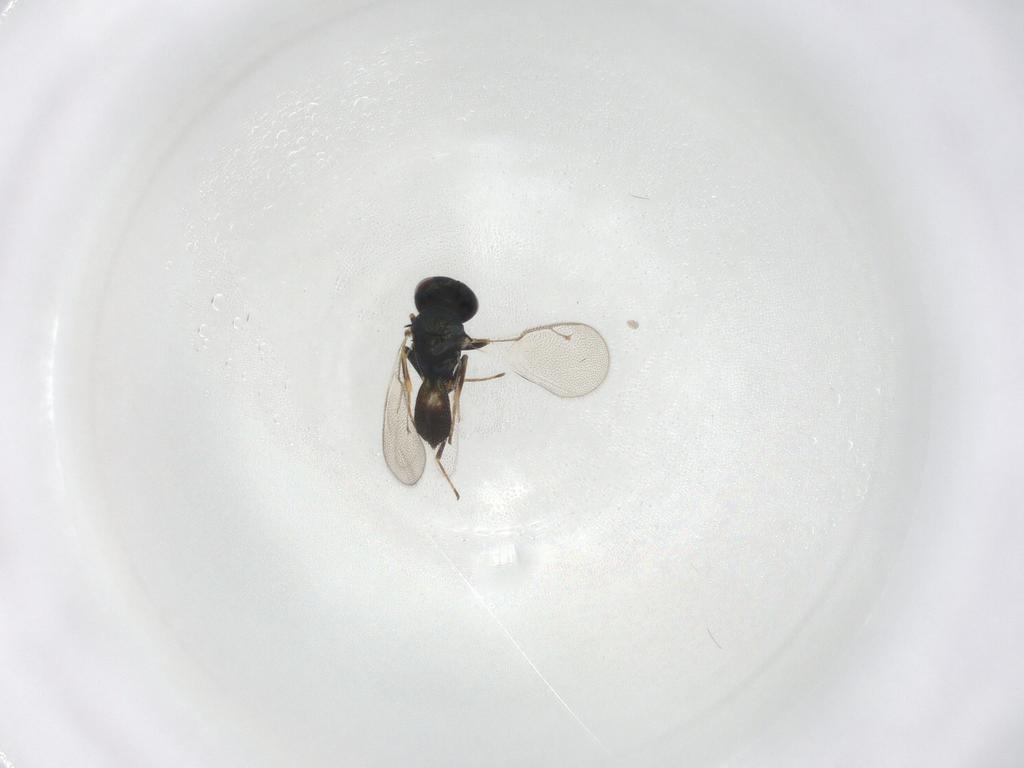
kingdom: Animalia
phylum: Arthropoda
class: Insecta
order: Hymenoptera
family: Pteromalidae
